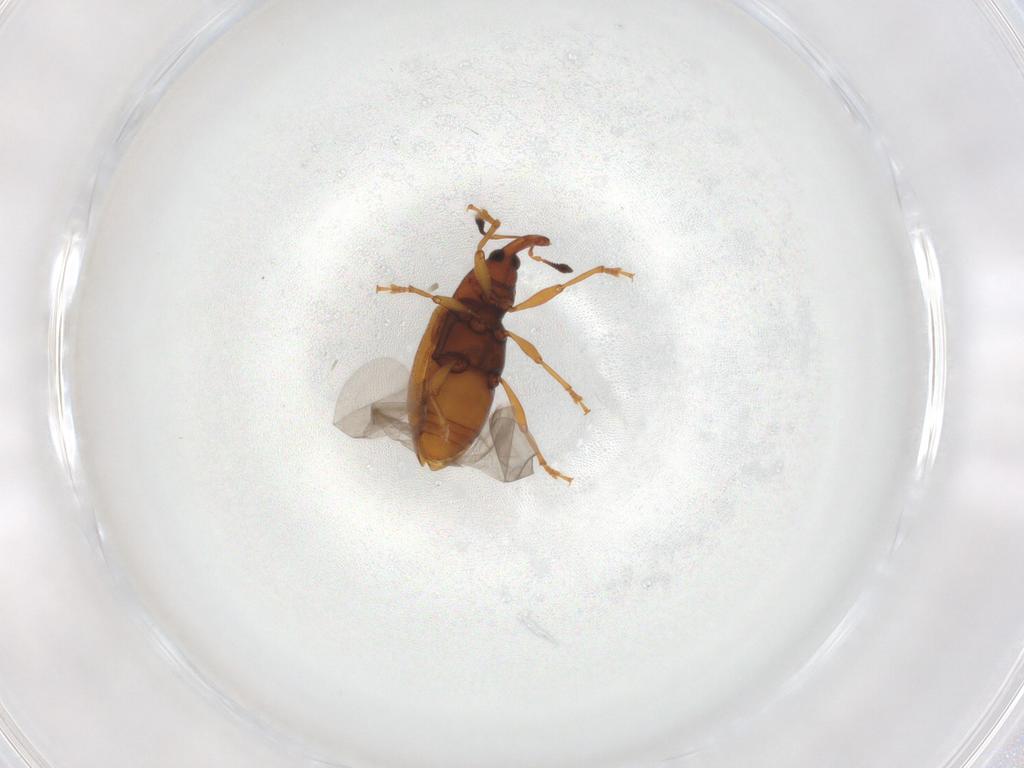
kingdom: Animalia
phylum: Arthropoda
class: Insecta
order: Coleoptera
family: Curculionidae
